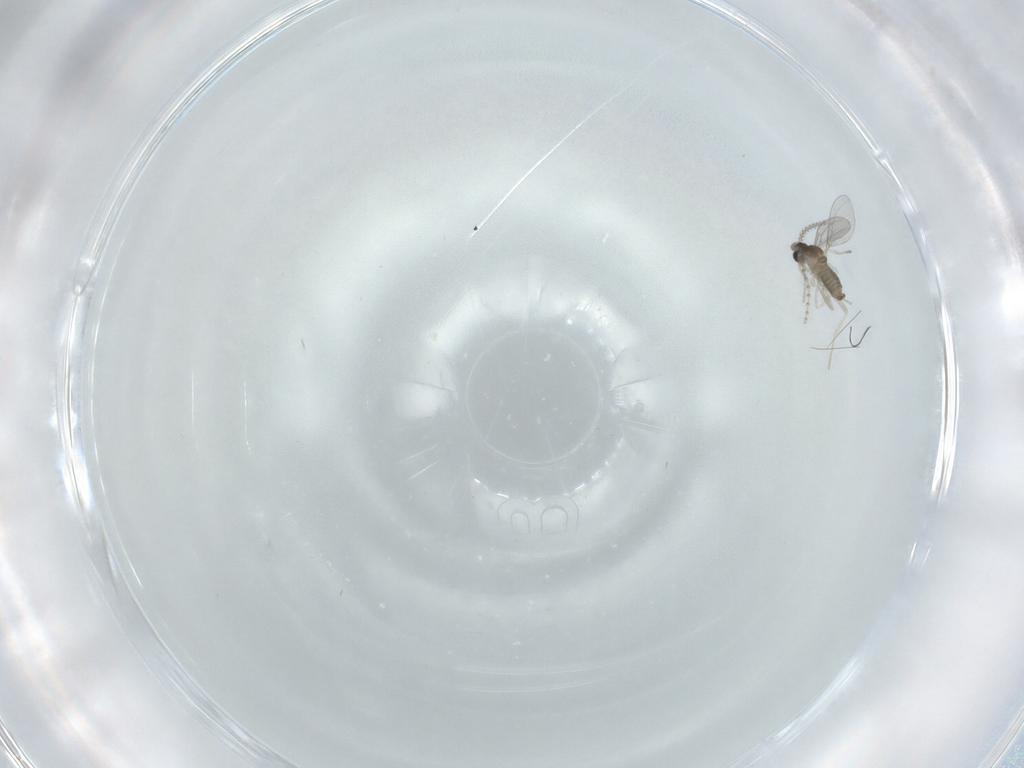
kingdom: Animalia
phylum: Arthropoda
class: Insecta
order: Diptera
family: Cecidomyiidae
